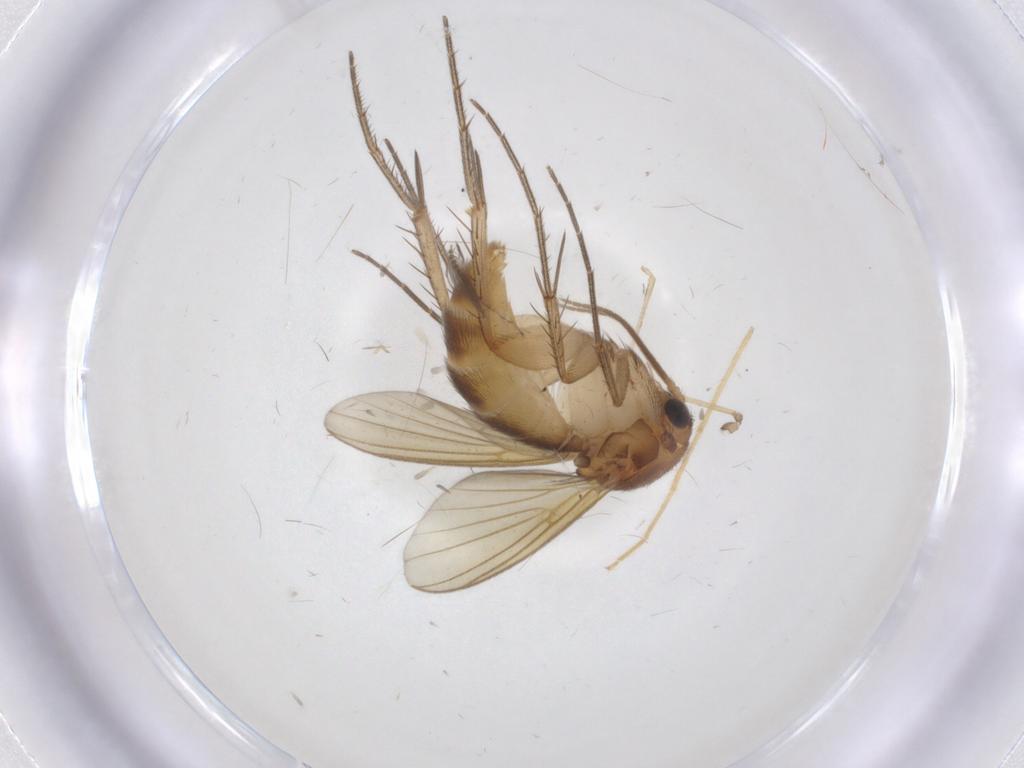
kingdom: Animalia
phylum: Arthropoda
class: Insecta
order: Diptera
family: Mycetophilidae
